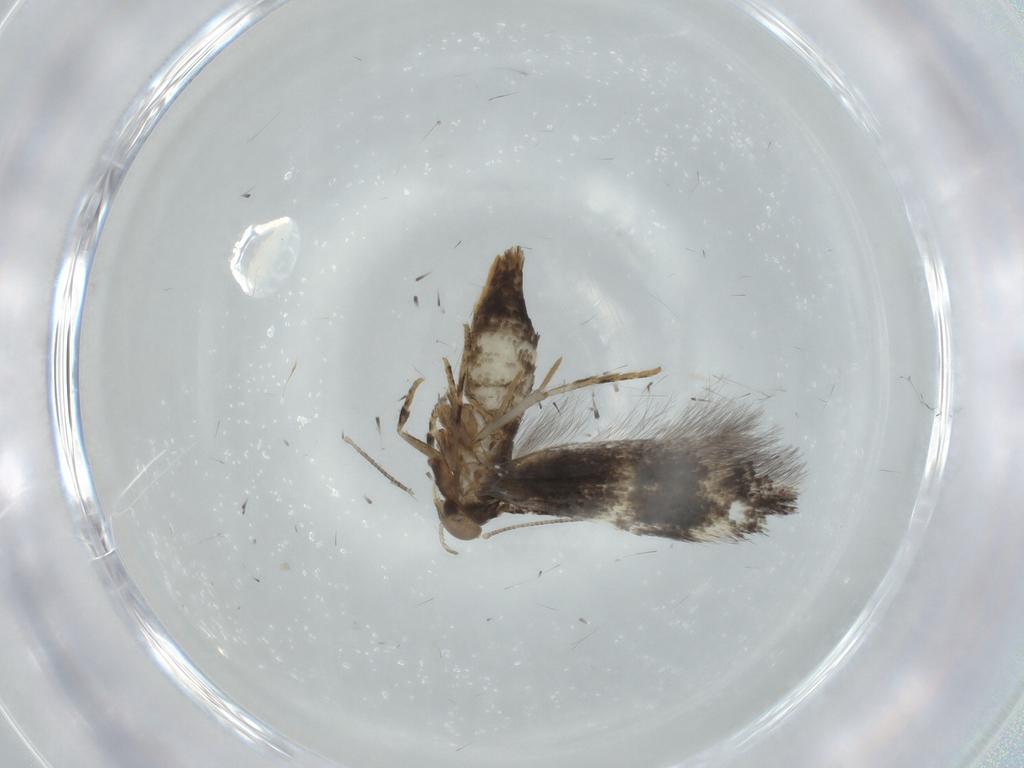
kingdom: Animalia
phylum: Arthropoda
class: Insecta
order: Lepidoptera
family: Elachistidae
